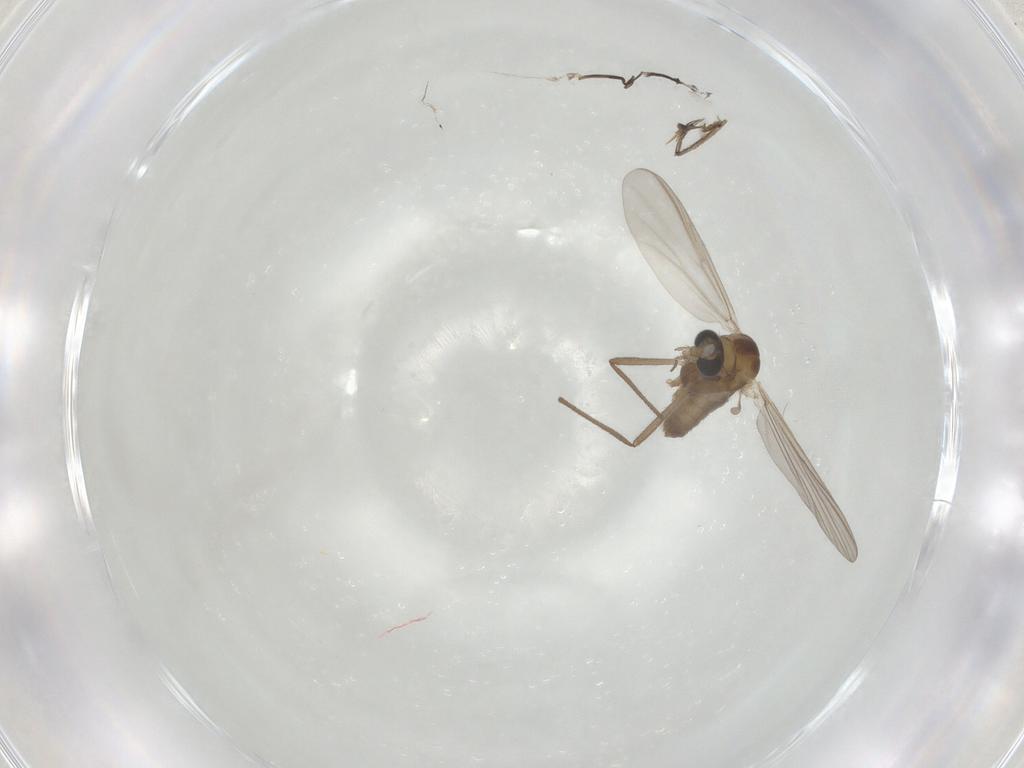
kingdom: Animalia
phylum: Arthropoda
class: Insecta
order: Diptera
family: Chironomidae
